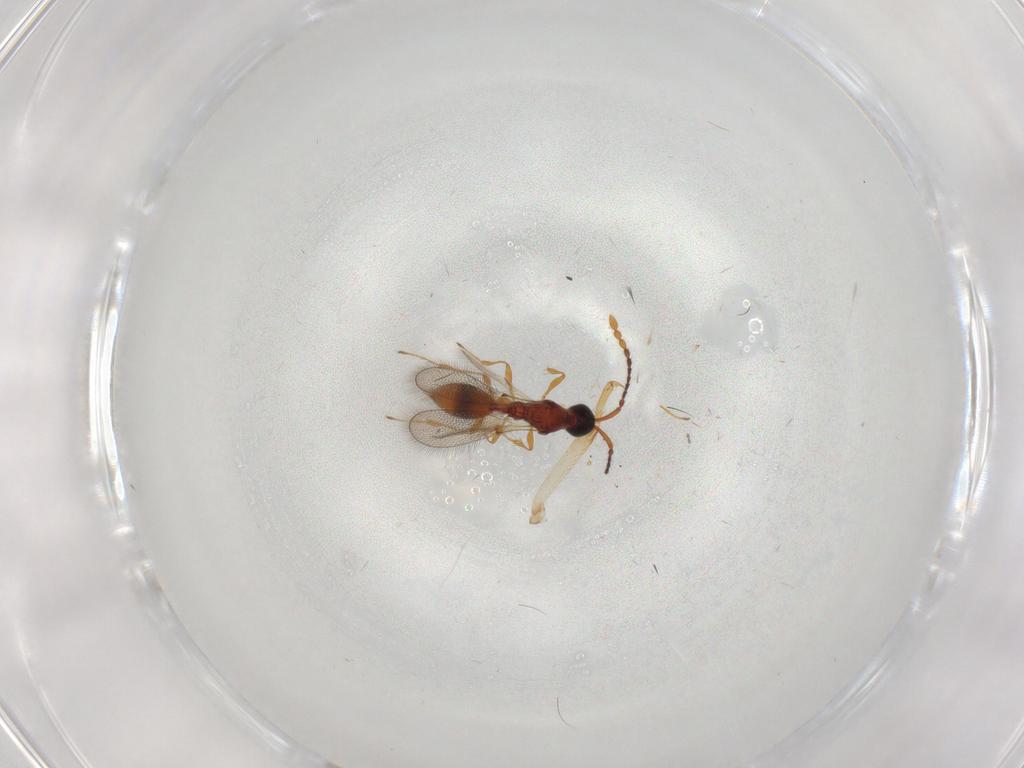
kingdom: Animalia
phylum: Arthropoda
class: Insecta
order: Hymenoptera
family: Diapriidae
